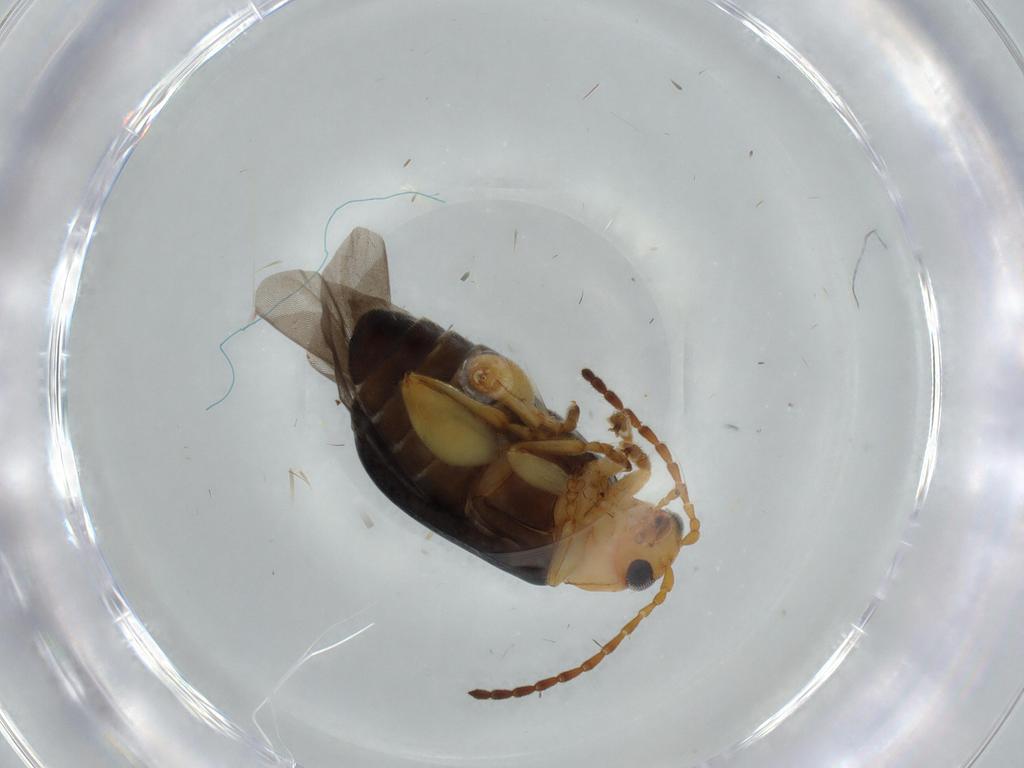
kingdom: Animalia
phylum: Arthropoda
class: Insecta
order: Coleoptera
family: Chrysomelidae
